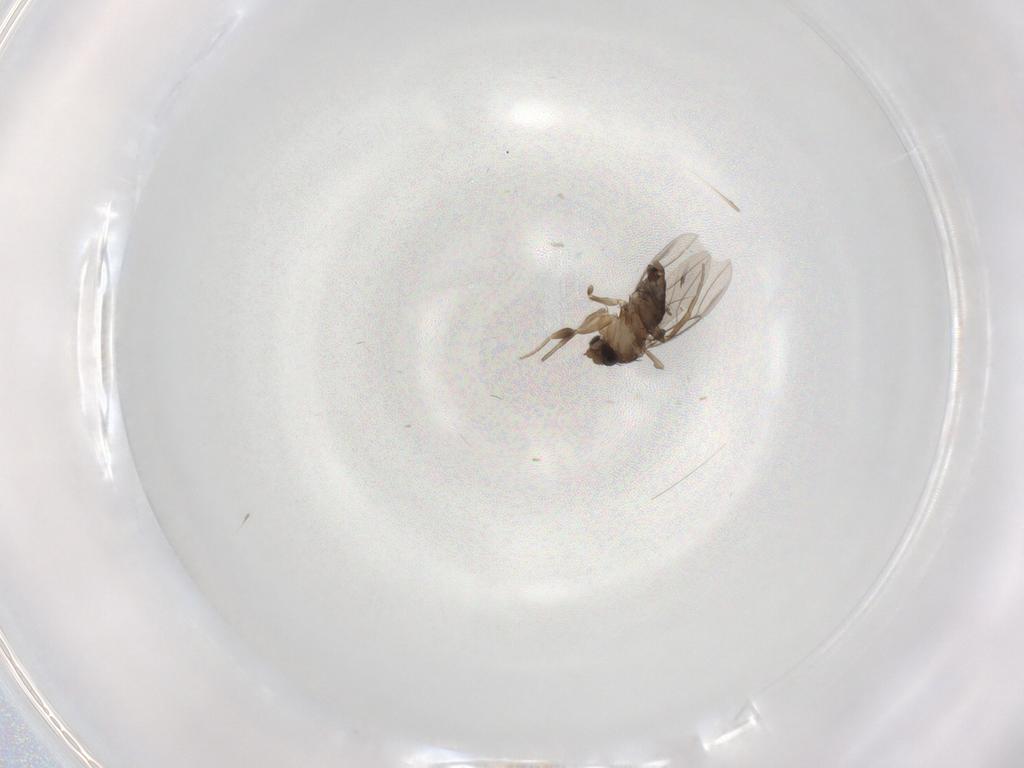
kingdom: Animalia
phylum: Arthropoda
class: Insecta
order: Diptera
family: Phoridae
